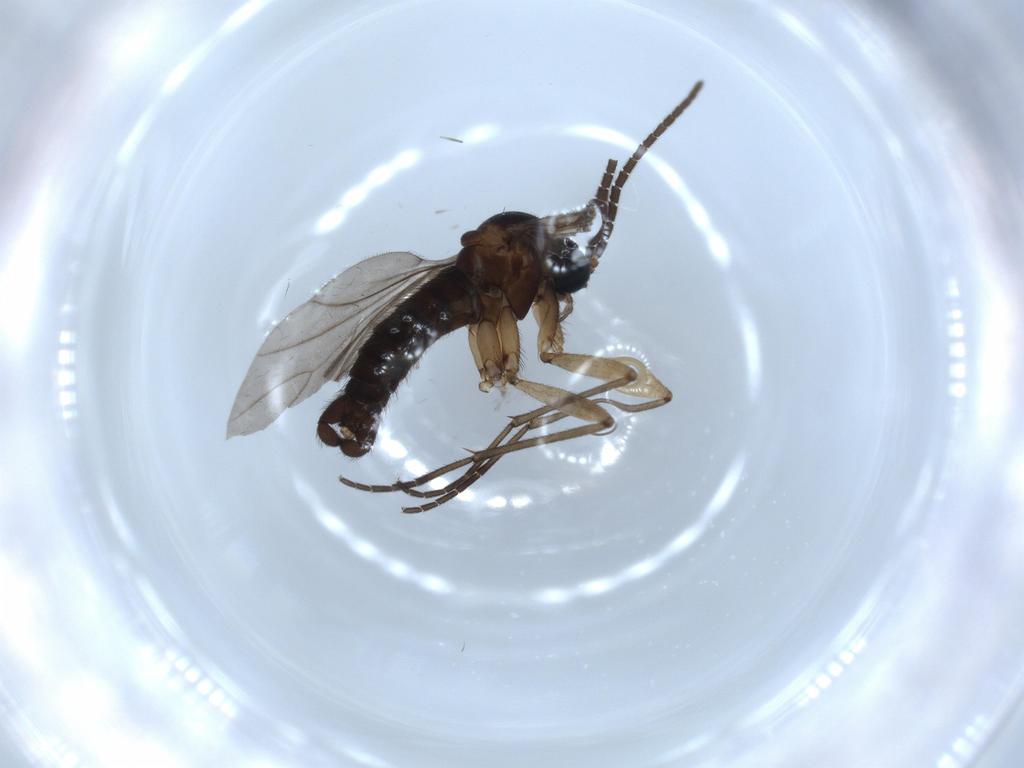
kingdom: Animalia
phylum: Arthropoda
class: Insecta
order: Diptera
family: Sciaridae
